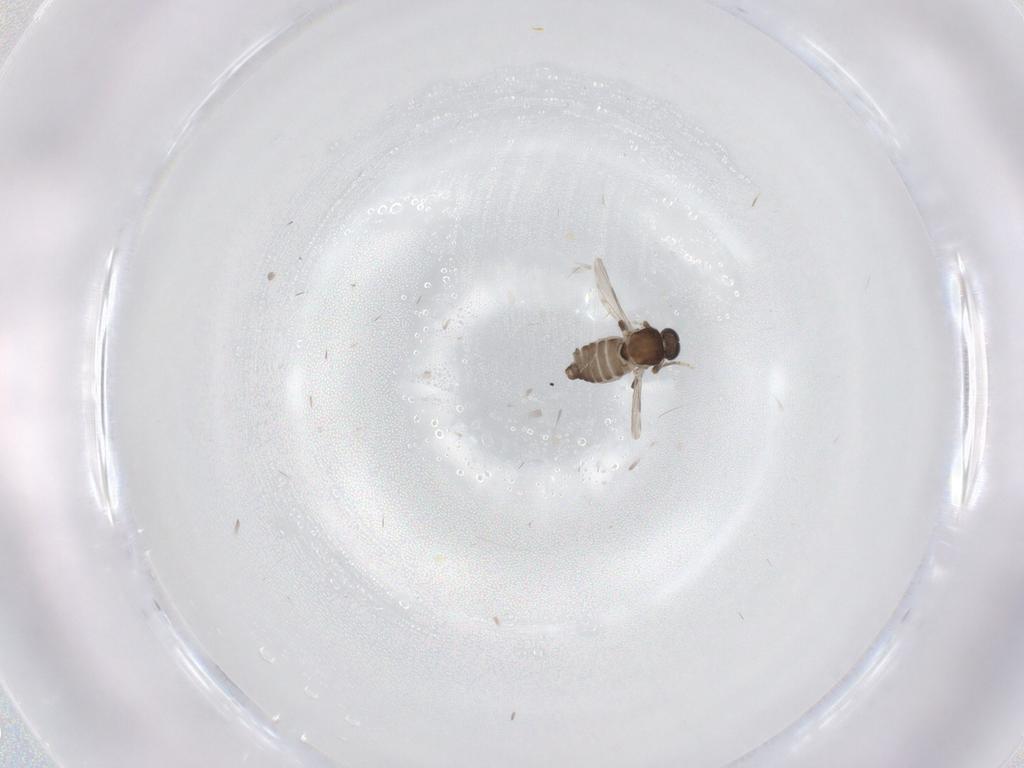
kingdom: Animalia
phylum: Arthropoda
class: Insecta
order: Diptera
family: Ceratopogonidae
